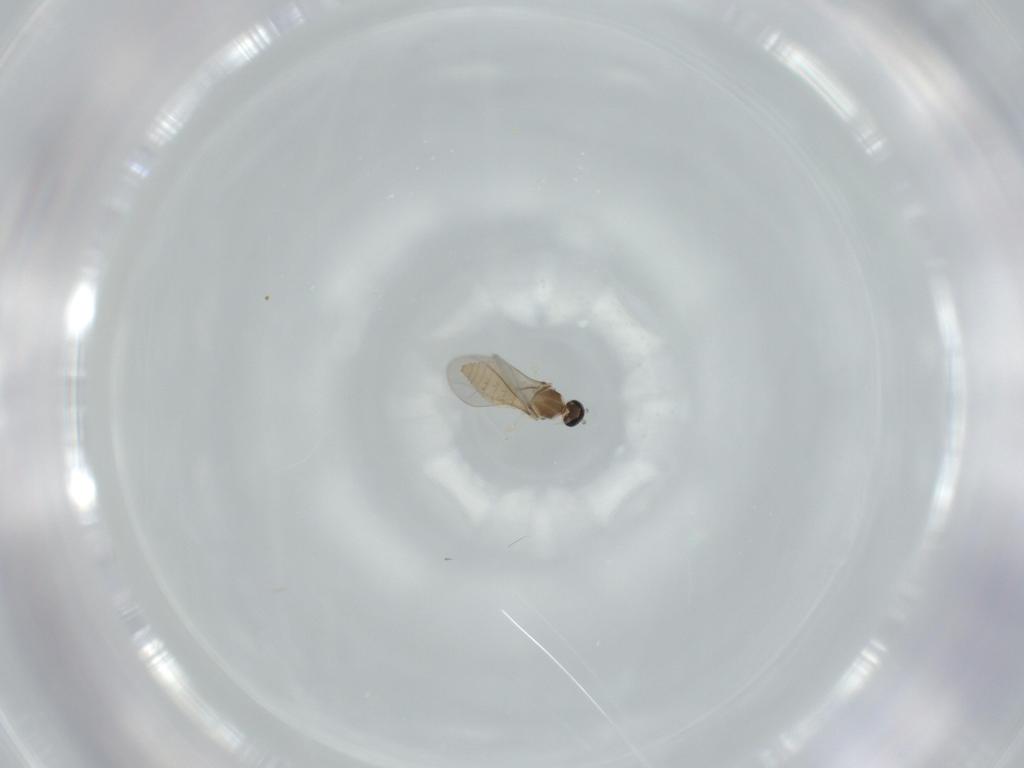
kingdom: Animalia
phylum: Arthropoda
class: Insecta
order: Diptera
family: Cecidomyiidae
